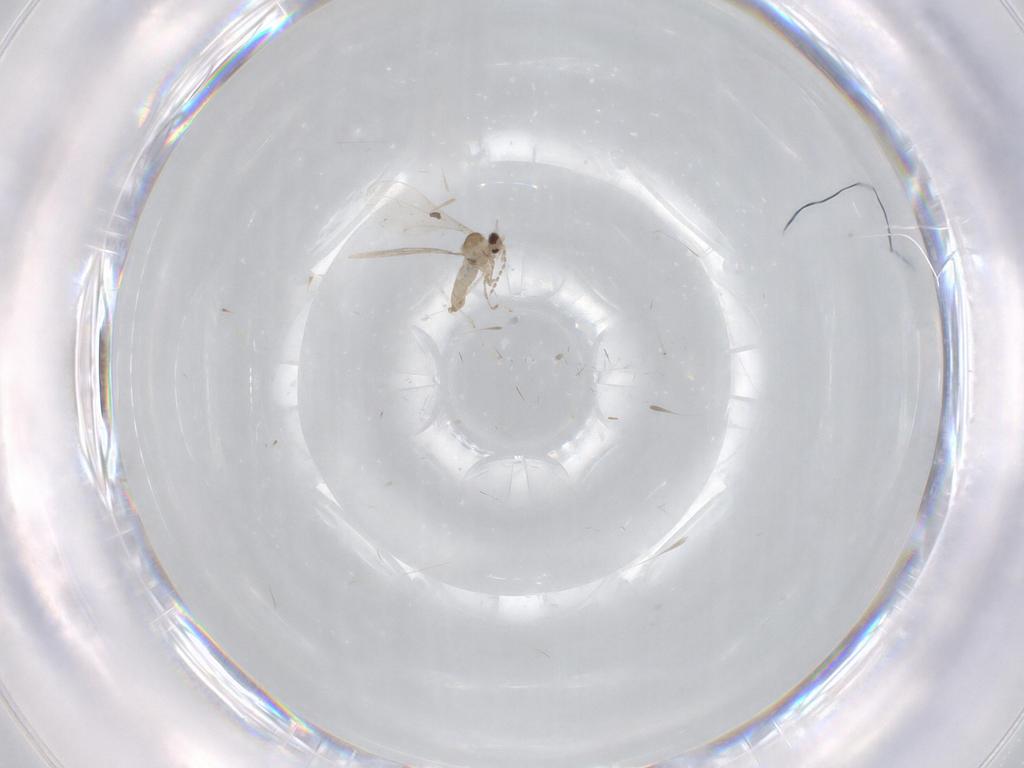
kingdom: Animalia
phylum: Arthropoda
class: Insecta
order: Diptera
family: Cecidomyiidae
